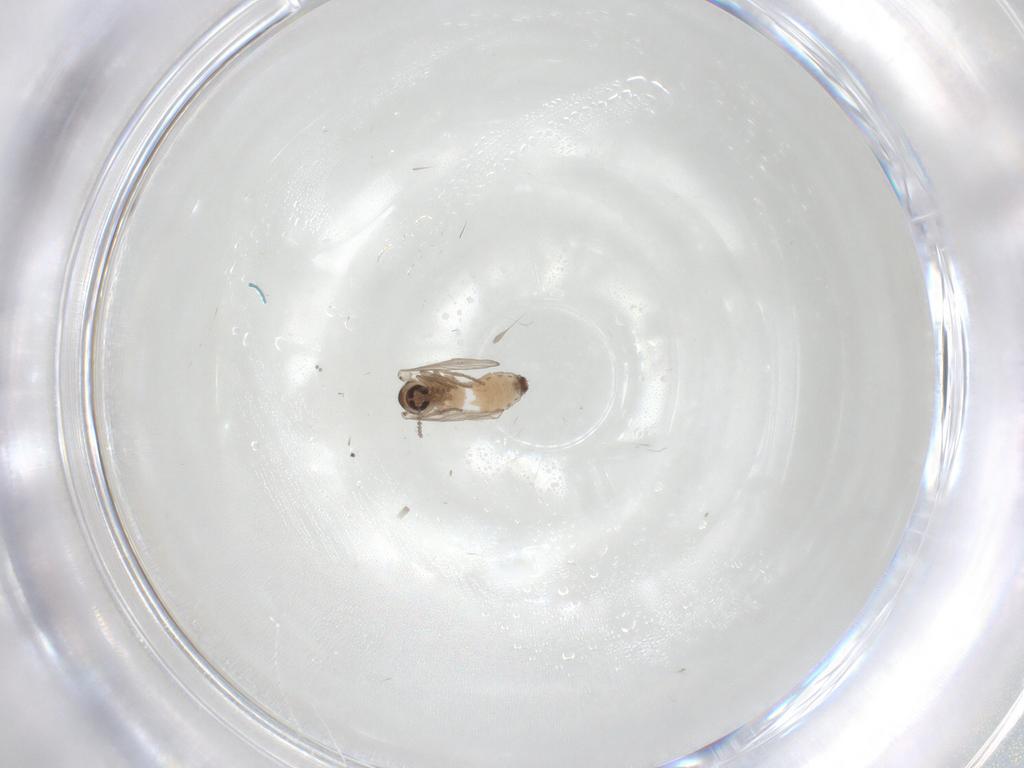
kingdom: Animalia
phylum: Arthropoda
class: Insecta
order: Diptera
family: Psychodidae
